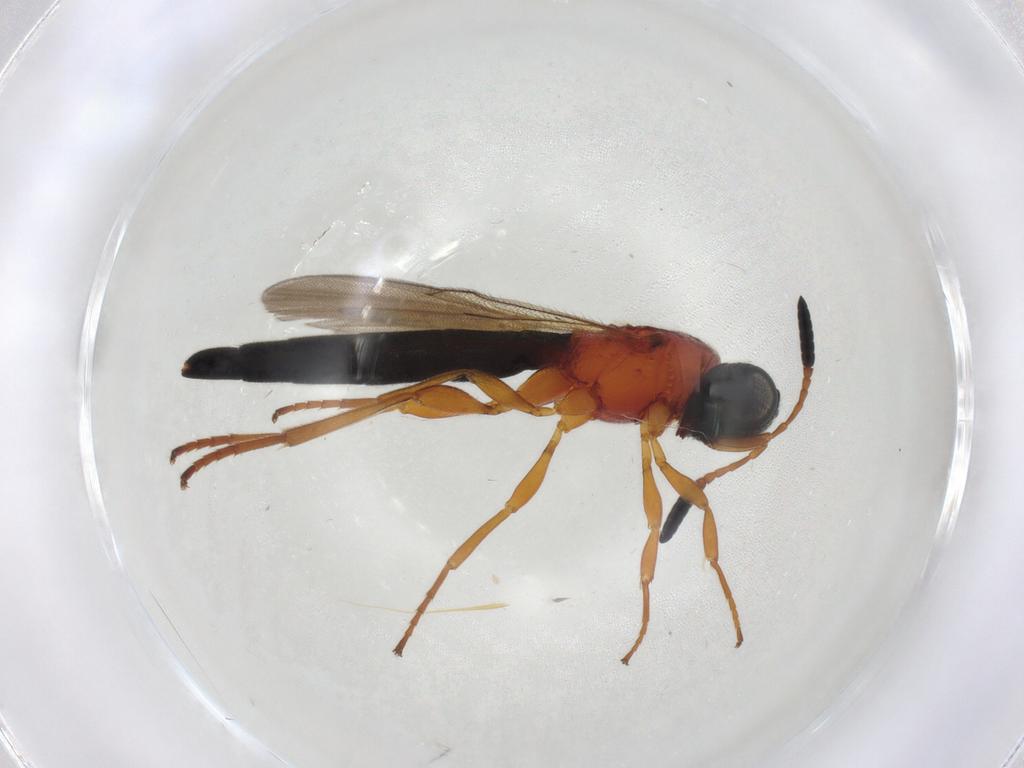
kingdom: Animalia
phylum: Arthropoda
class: Insecta
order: Hymenoptera
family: Scelionidae
